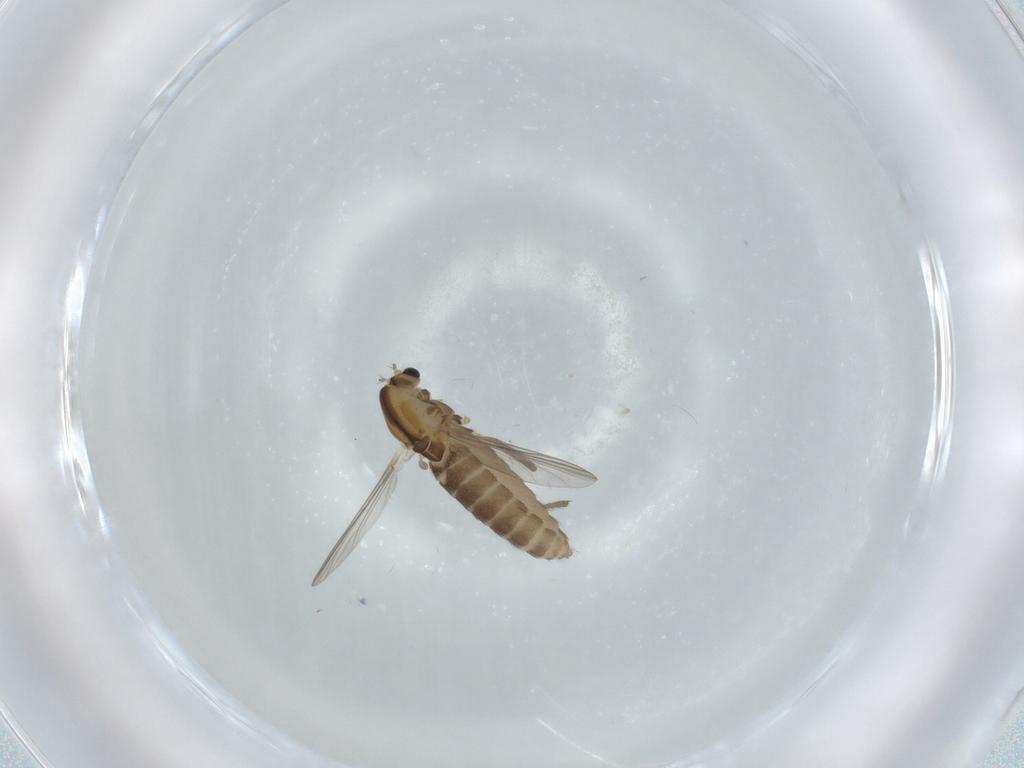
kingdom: Animalia
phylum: Arthropoda
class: Insecta
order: Diptera
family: Chironomidae
